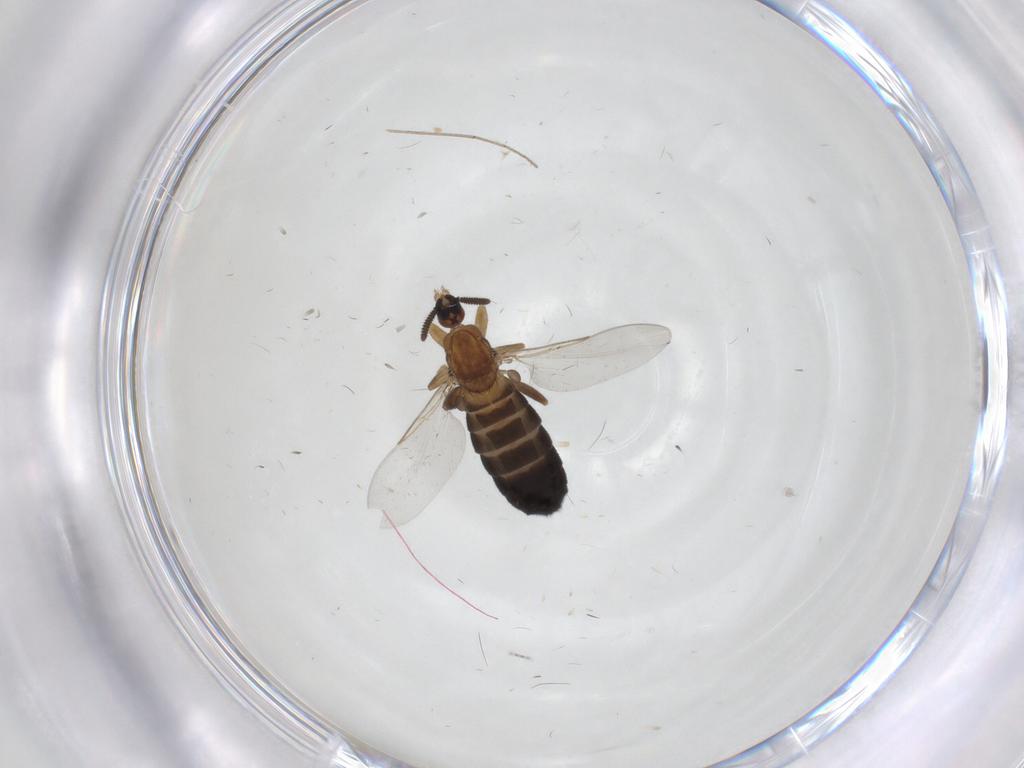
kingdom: Animalia
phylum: Arthropoda
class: Insecta
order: Diptera
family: Scatopsidae
